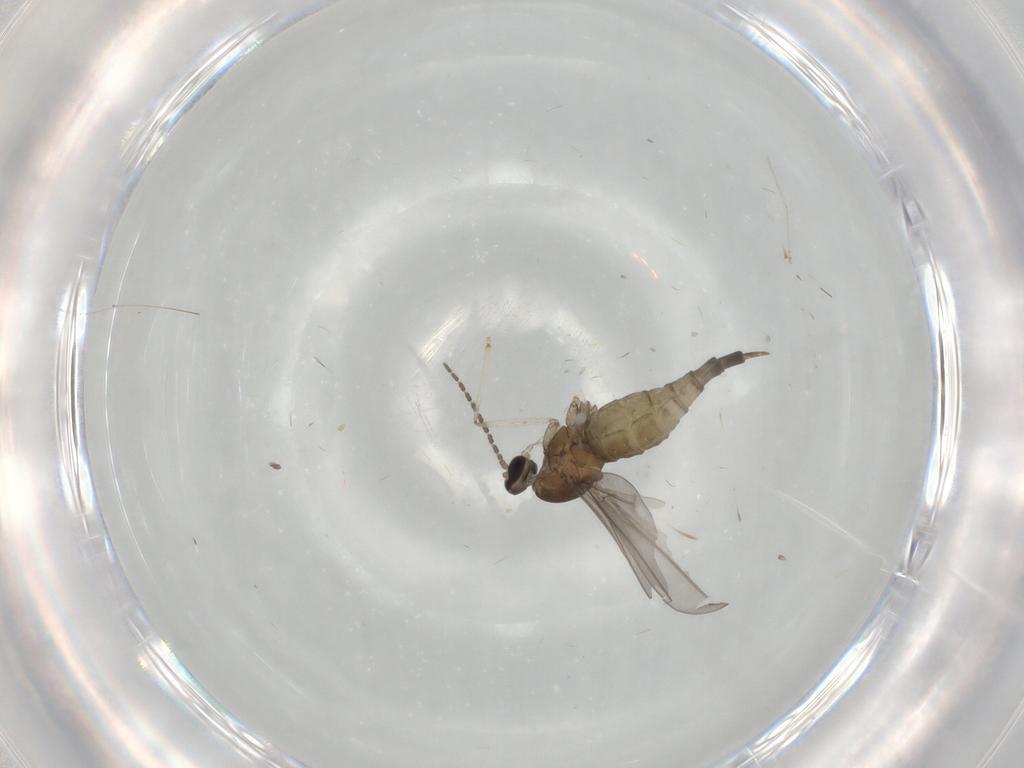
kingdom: Animalia
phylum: Arthropoda
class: Insecta
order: Diptera
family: Cecidomyiidae
